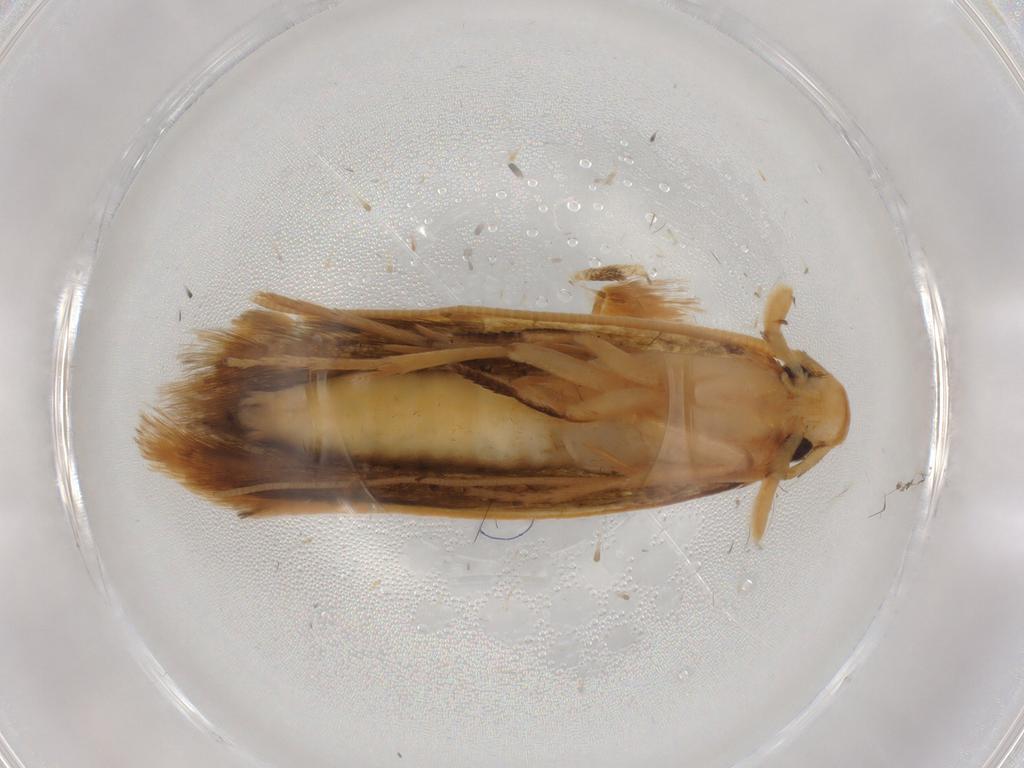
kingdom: Animalia
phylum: Arthropoda
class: Insecta
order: Lepidoptera
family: Geometridae
